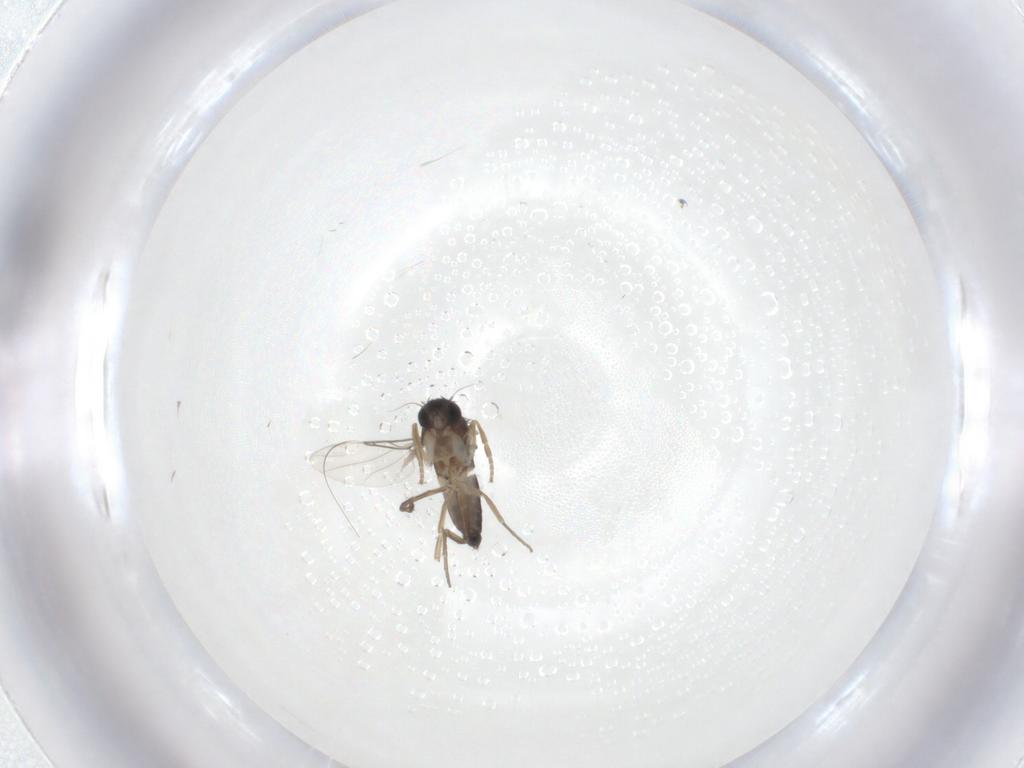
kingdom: Animalia
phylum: Arthropoda
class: Insecta
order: Diptera
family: Phoridae
